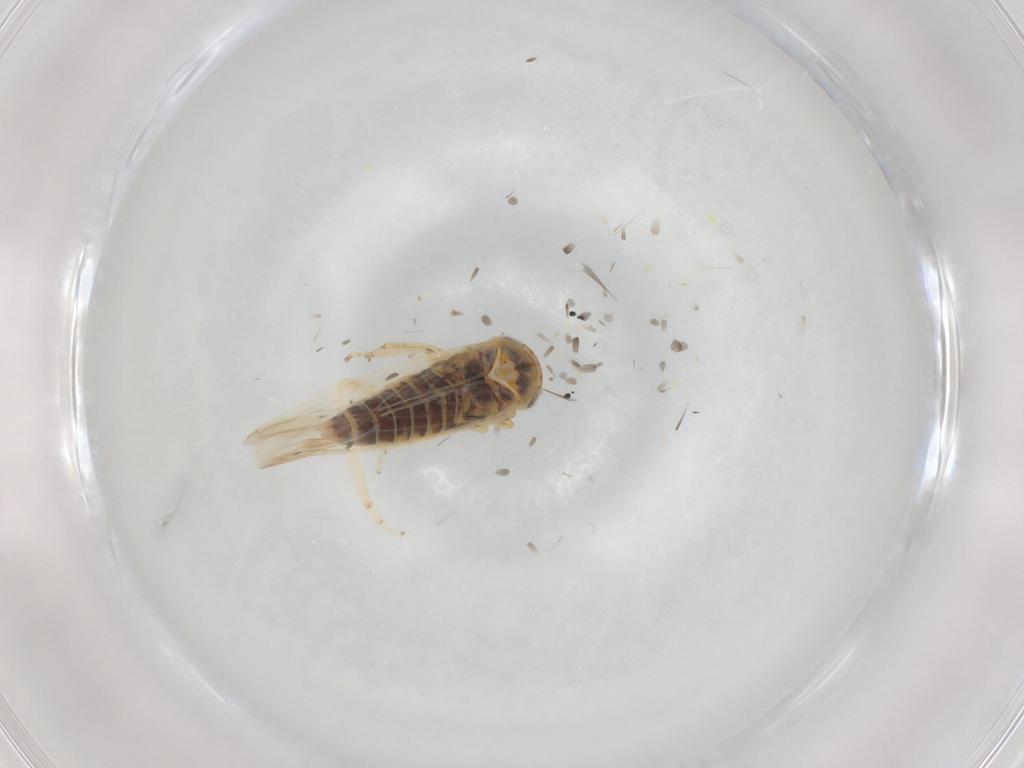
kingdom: Animalia
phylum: Arthropoda
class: Insecta
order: Hemiptera
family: Cicadellidae
